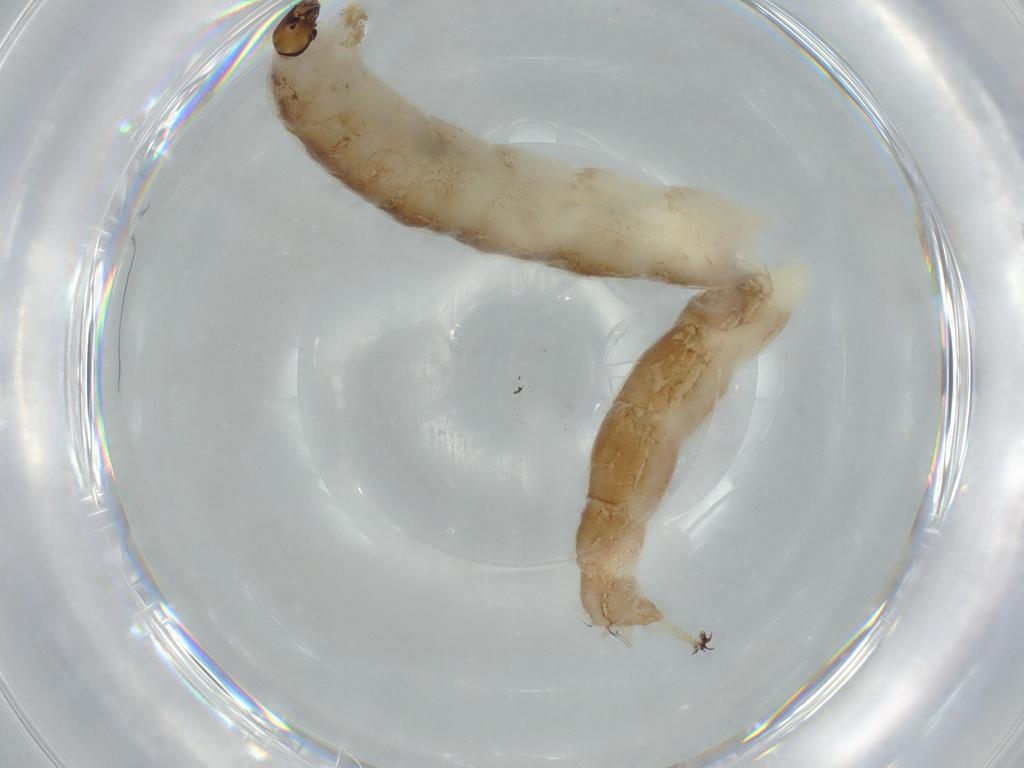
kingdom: Animalia
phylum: Arthropoda
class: Insecta
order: Diptera
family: Chironomidae
